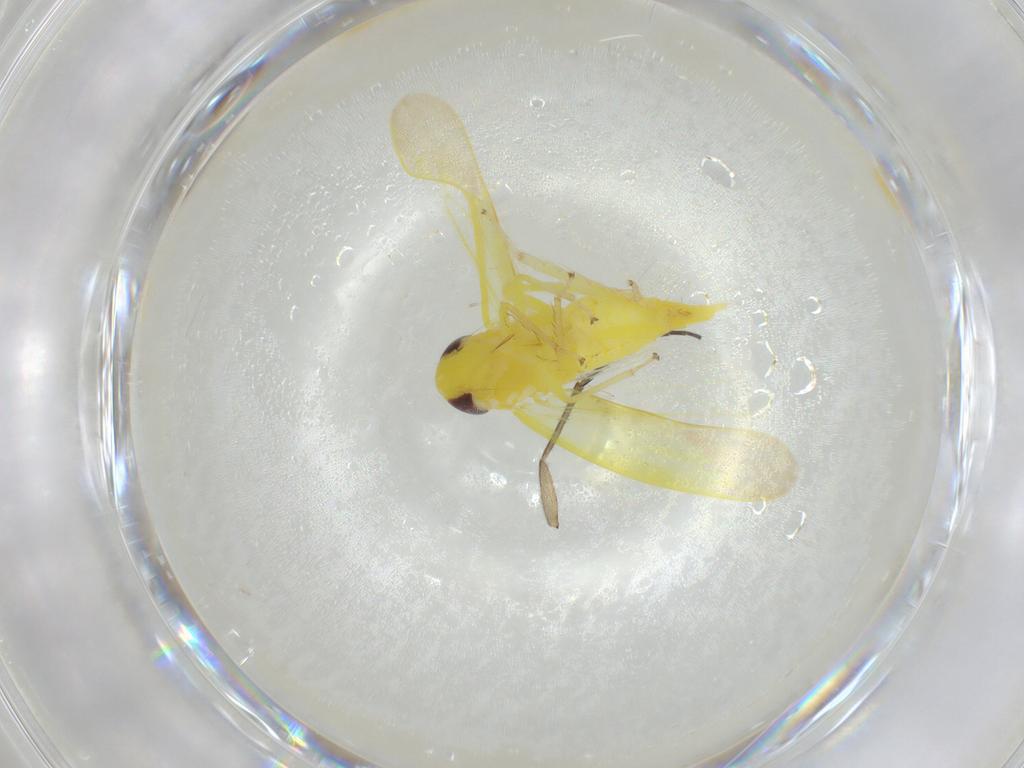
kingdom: Animalia
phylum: Arthropoda
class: Insecta
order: Hemiptera
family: Cicadellidae
